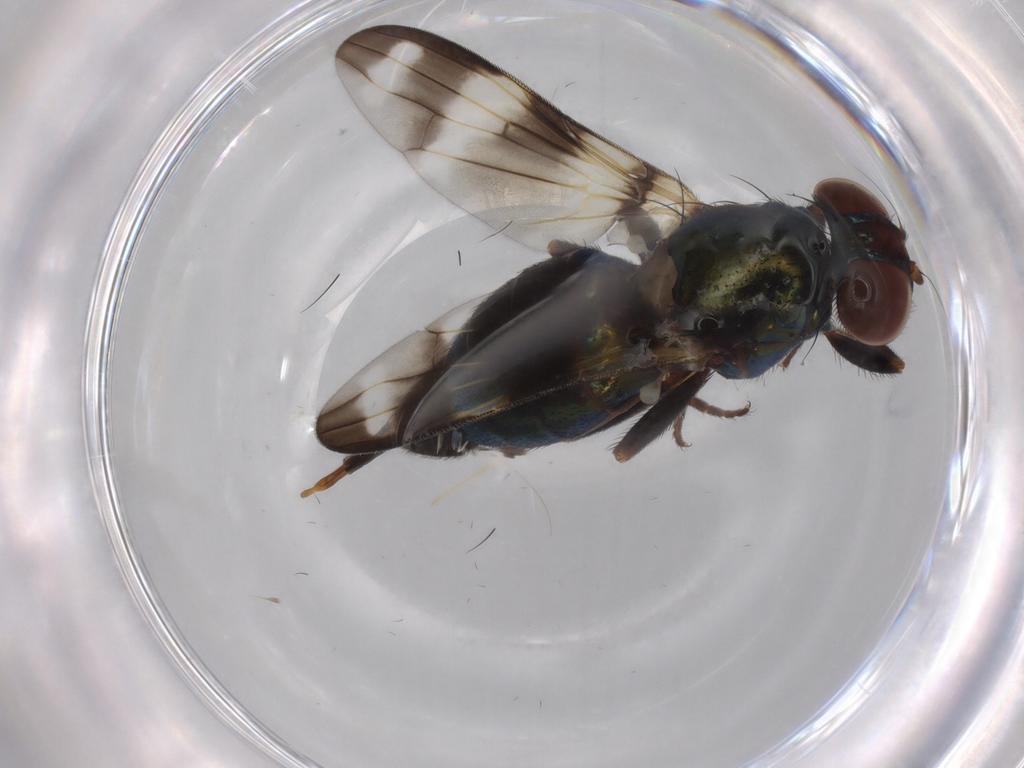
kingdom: Animalia
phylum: Arthropoda
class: Insecta
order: Diptera
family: Ulidiidae
